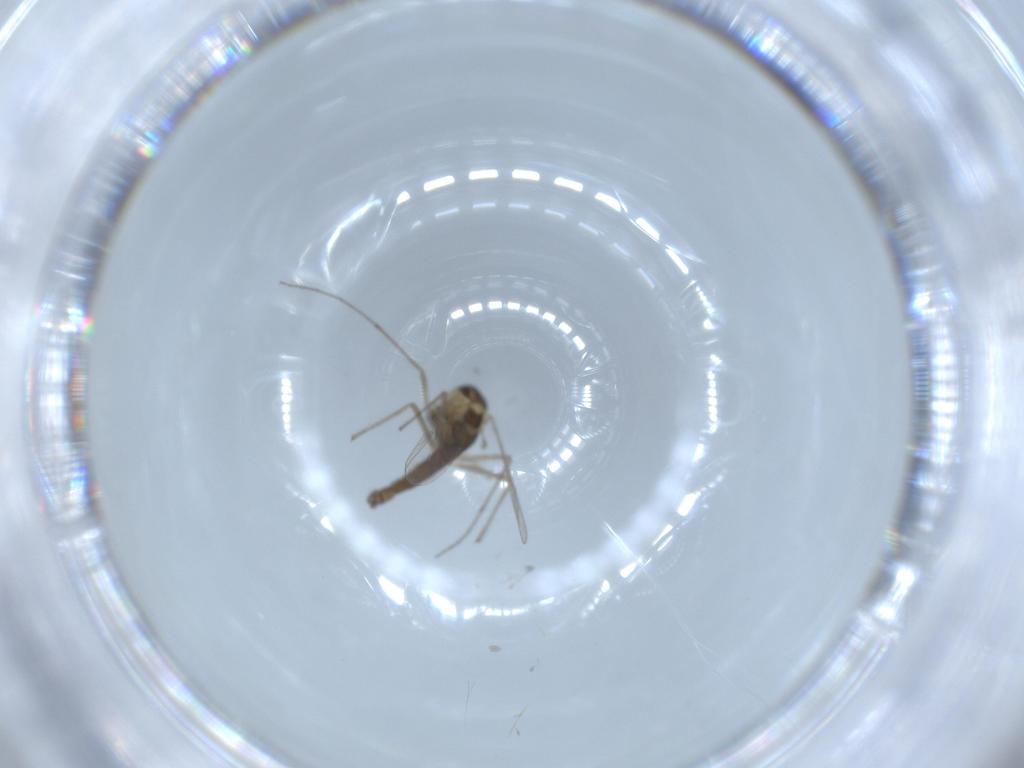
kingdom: Animalia
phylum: Arthropoda
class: Insecta
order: Diptera
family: Chironomidae
